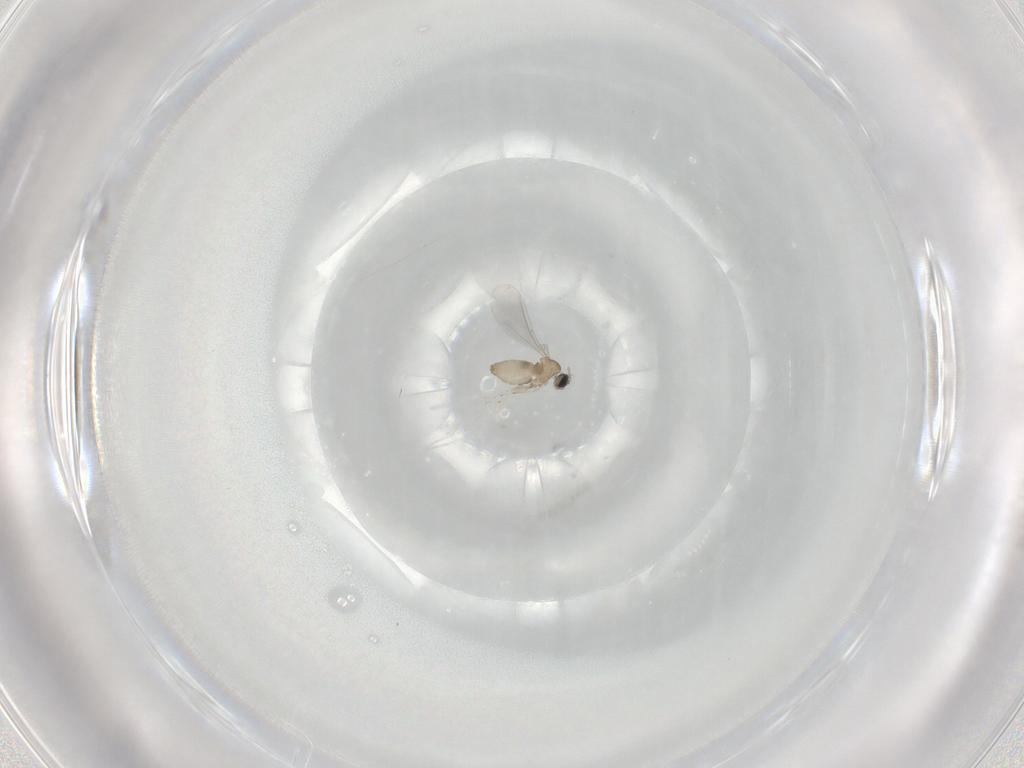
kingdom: Animalia
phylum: Arthropoda
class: Insecta
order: Diptera
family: Cecidomyiidae
